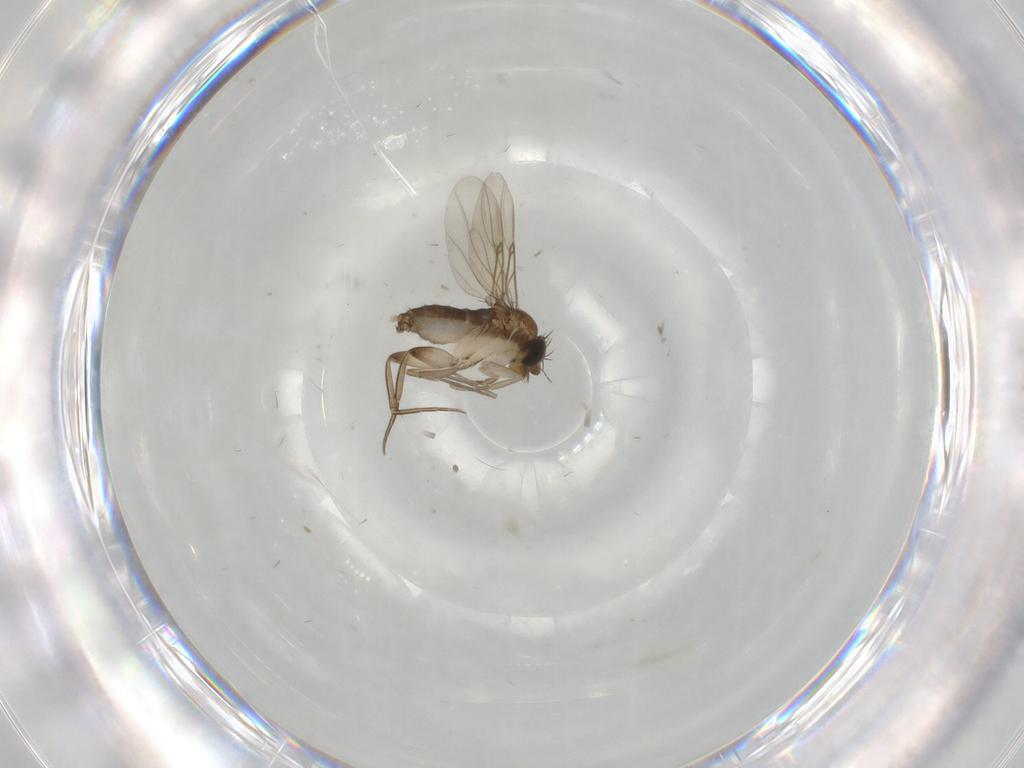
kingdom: Animalia
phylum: Arthropoda
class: Insecta
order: Diptera
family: Phoridae
